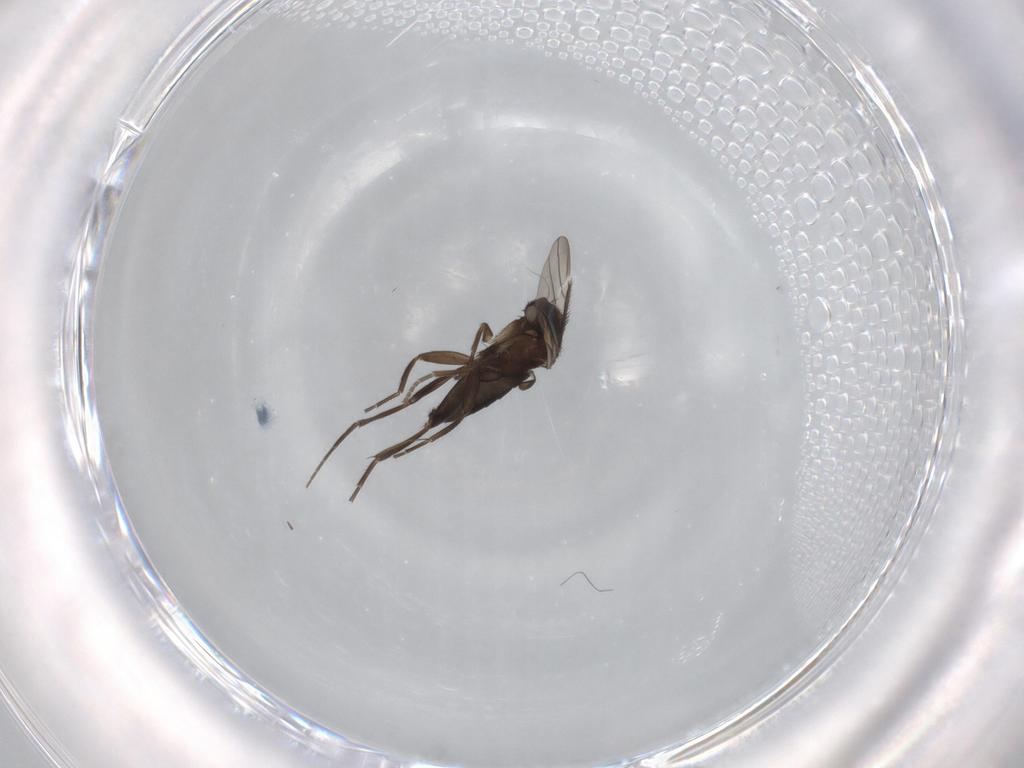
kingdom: Animalia
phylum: Arthropoda
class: Insecta
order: Diptera
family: Phoridae
